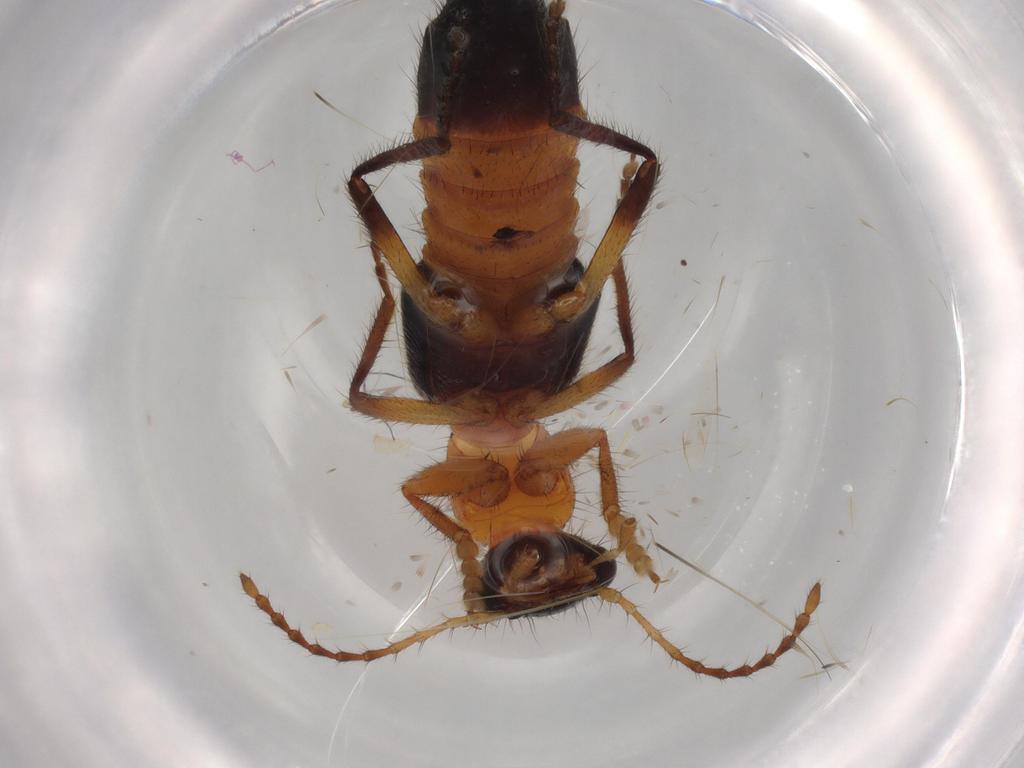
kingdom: Animalia
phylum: Arthropoda
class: Insecta
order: Coleoptera
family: Staphylinidae
